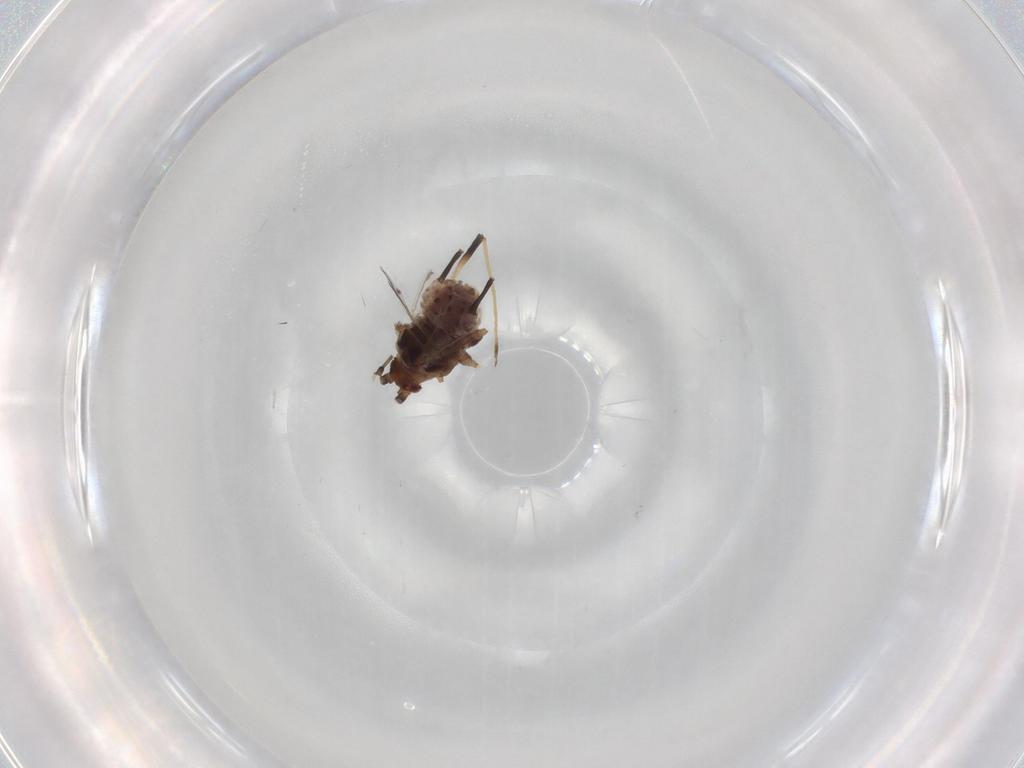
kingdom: Animalia
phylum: Arthropoda
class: Insecta
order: Hemiptera
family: Aphididae
